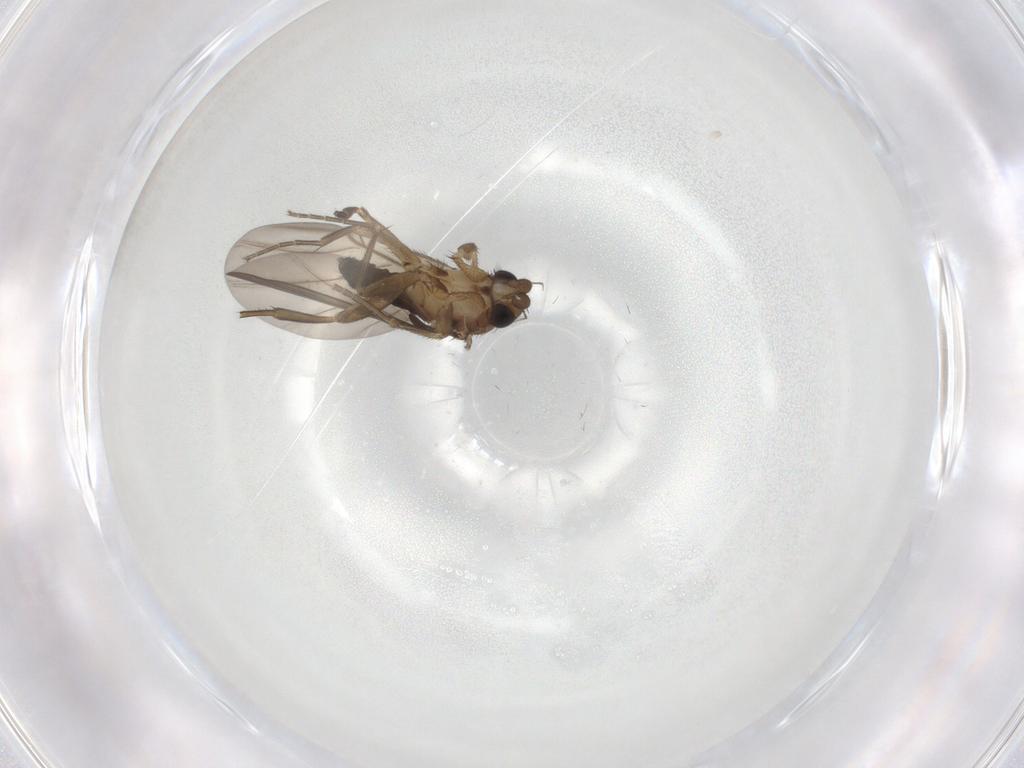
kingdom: Animalia
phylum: Arthropoda
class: Insecta
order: Diptera
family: Phoridae
